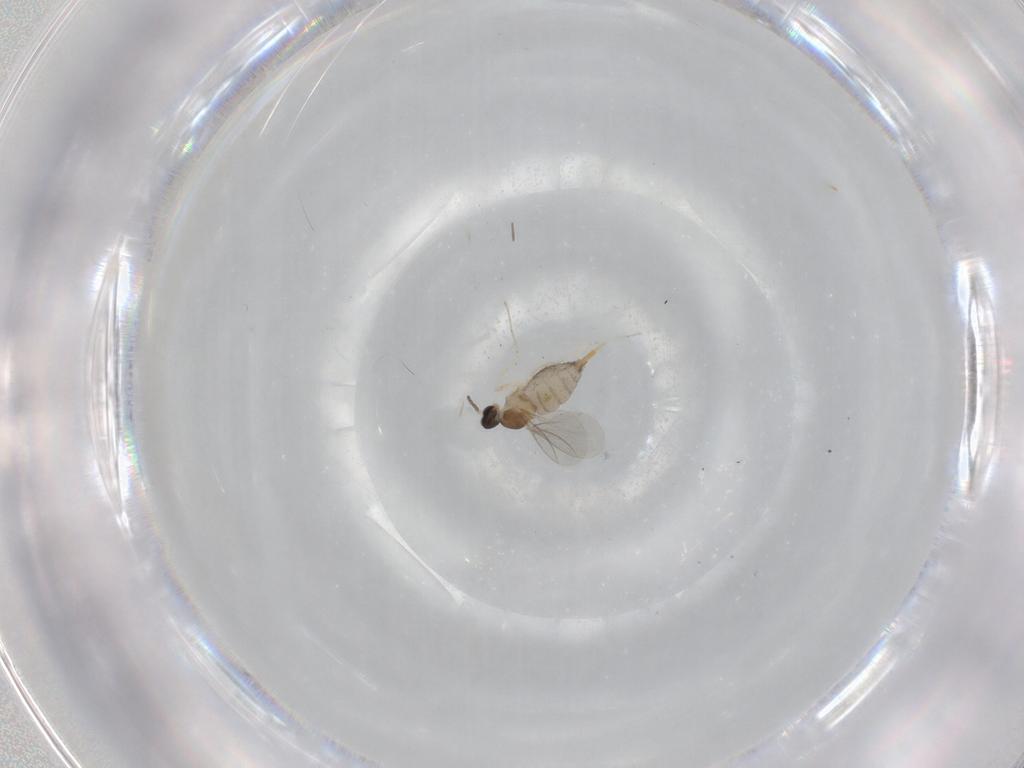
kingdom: Animalia
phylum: Arthropoda
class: Insecta
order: Diptera
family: Cecidomyiidae
